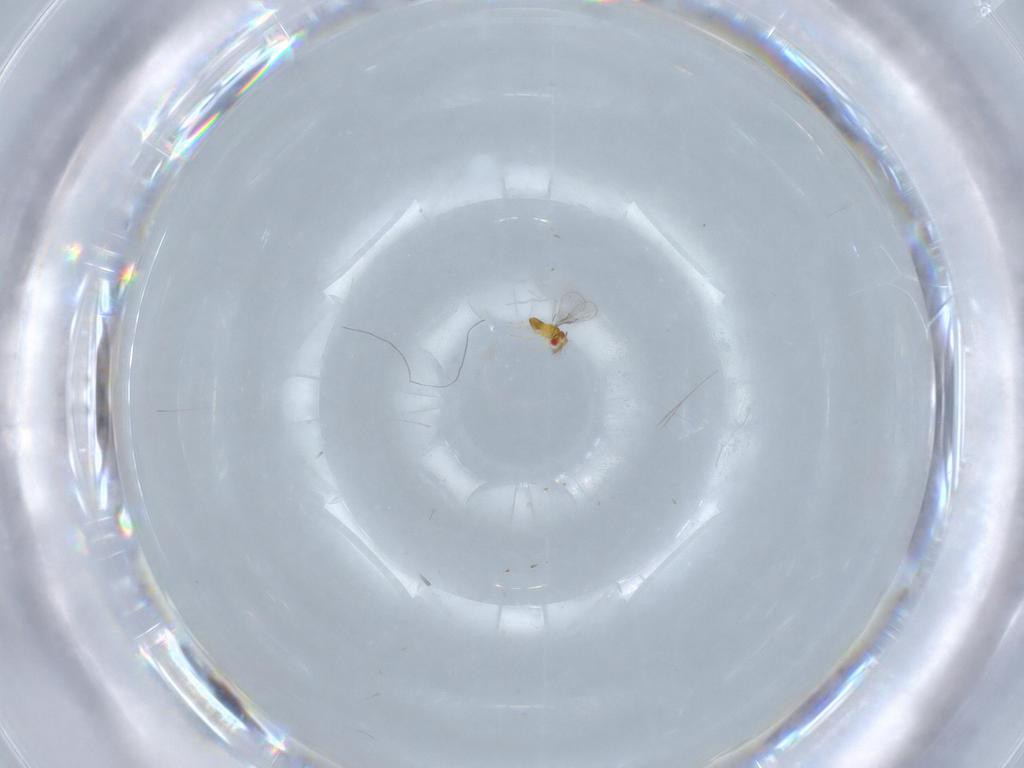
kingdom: Animalia
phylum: Arthropoda
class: Insecta
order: Hymenoptera
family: Trichogrammatidae
